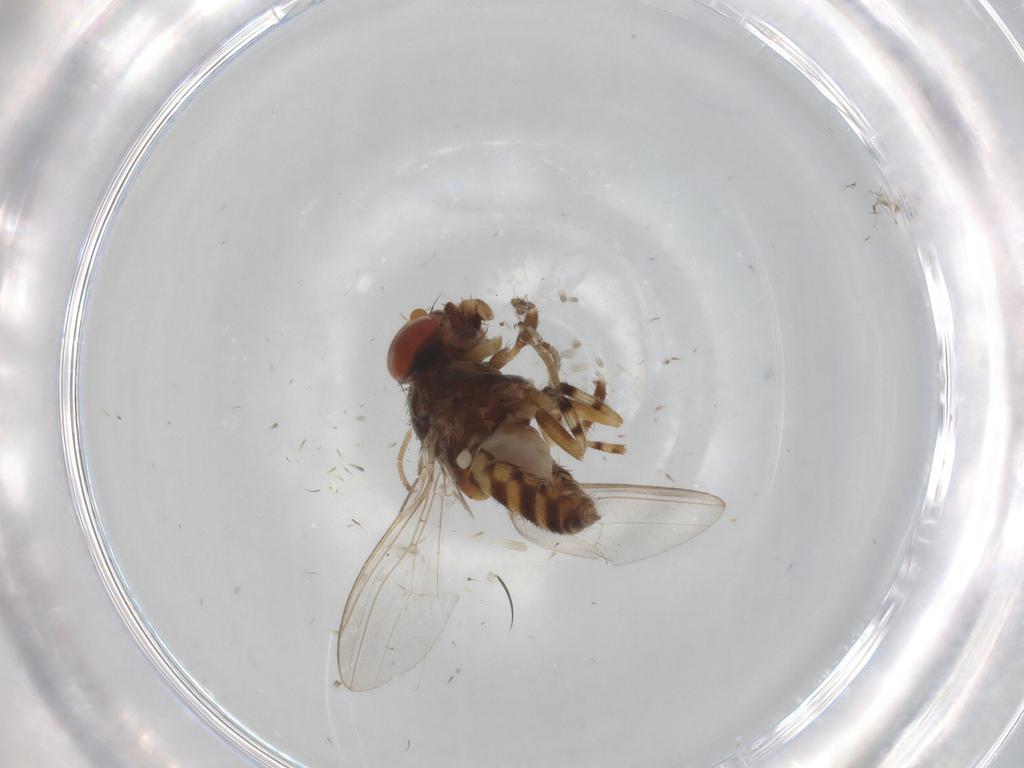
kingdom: Animalia
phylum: Arthropoda
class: Insecta
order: Diptera
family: Drosophilidae
